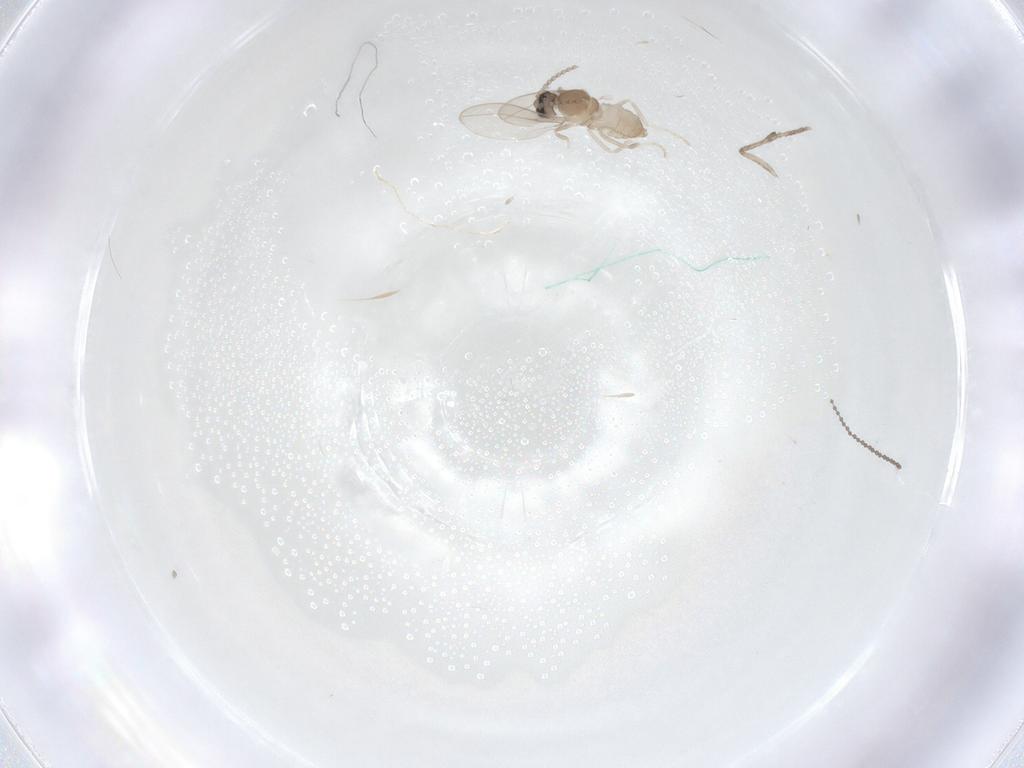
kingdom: Animalia
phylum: Arthropoda
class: Insecta
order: Diptera
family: Cecidomyiidae
